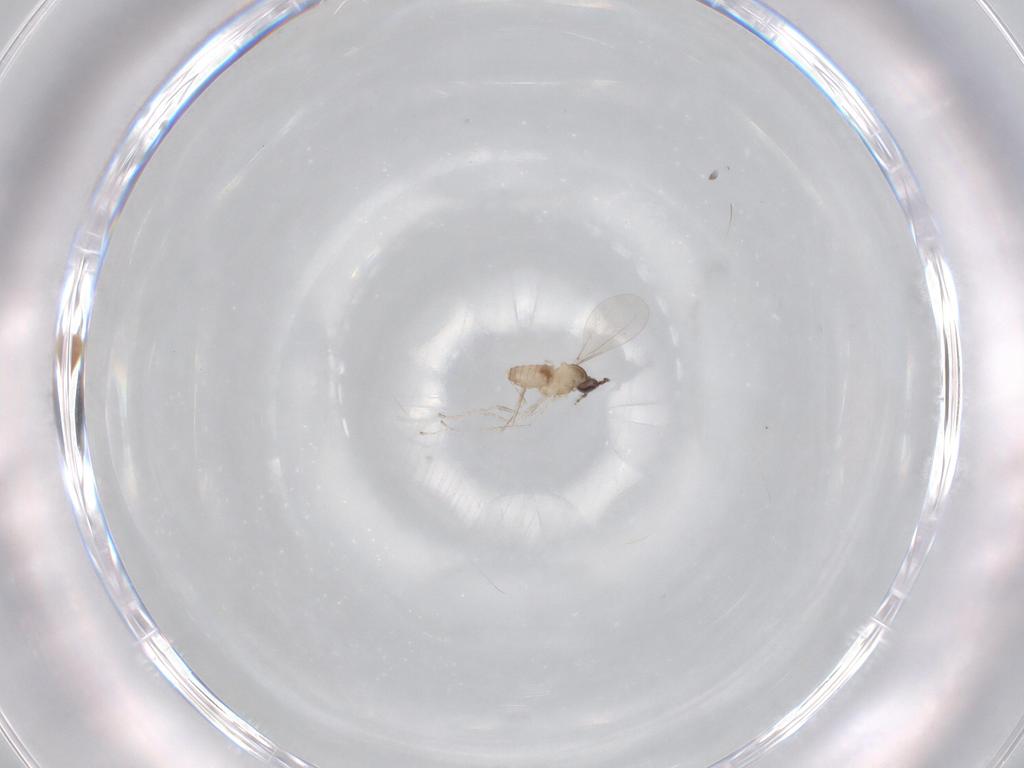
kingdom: Animalia
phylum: Arthropoda
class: Insecta
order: Diptera
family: Cecidomyiidae
